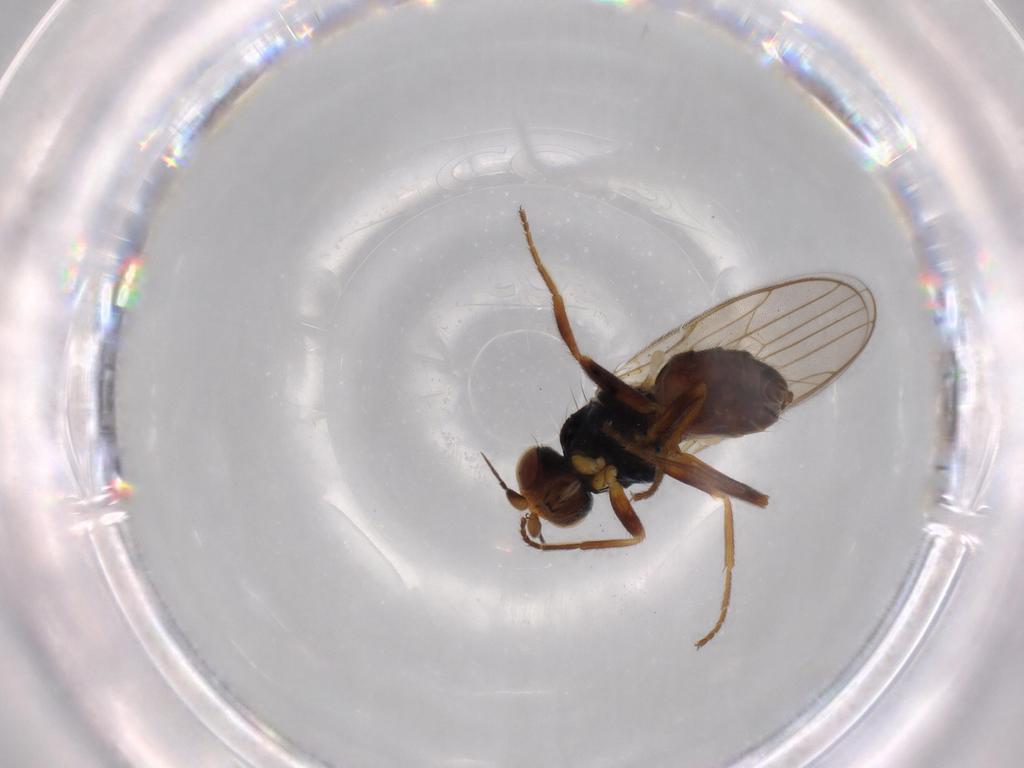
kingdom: Animalia
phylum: Arthropoda
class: Insecta
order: Diptera
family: Chloropidae
